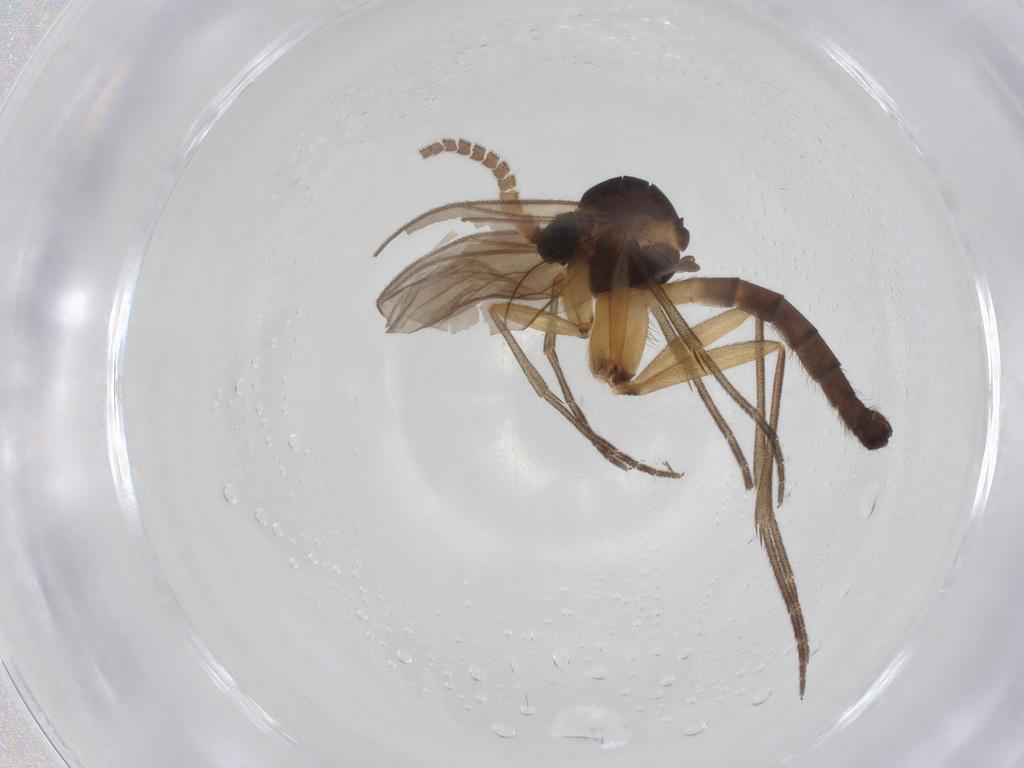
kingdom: Animalia
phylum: Arthropoda
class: Insecta
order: Diptera
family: Mycetophilidae
